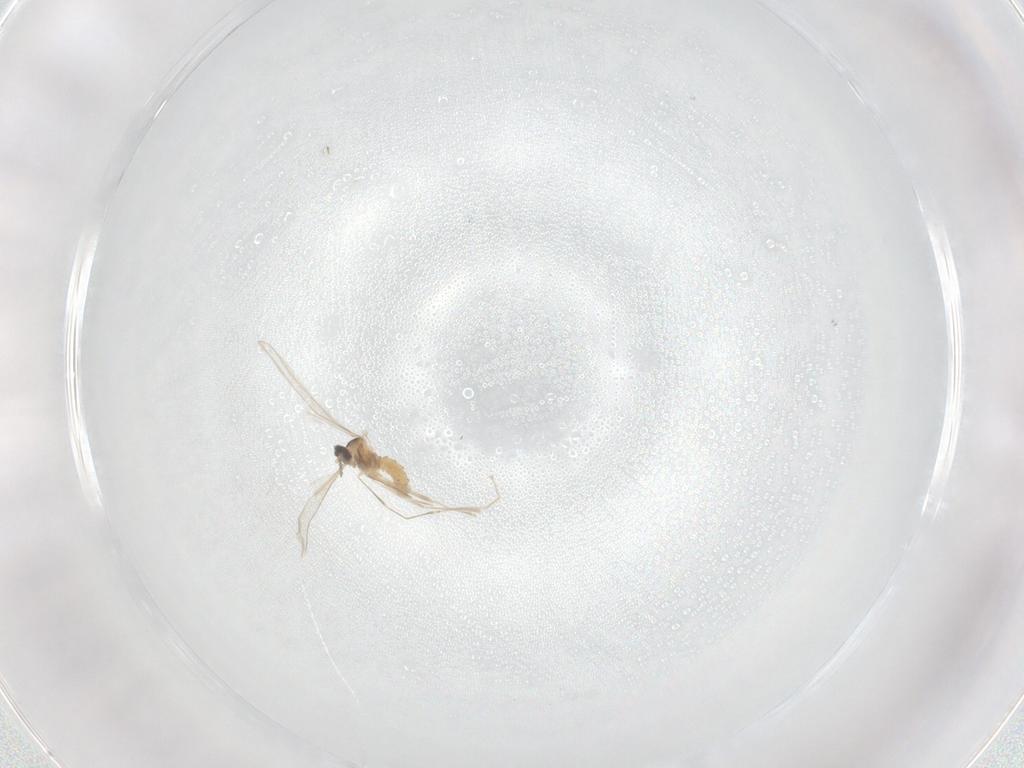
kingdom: Animalia
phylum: Arthropoda
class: Insecta
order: Diptera
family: Cecidomyiidae
